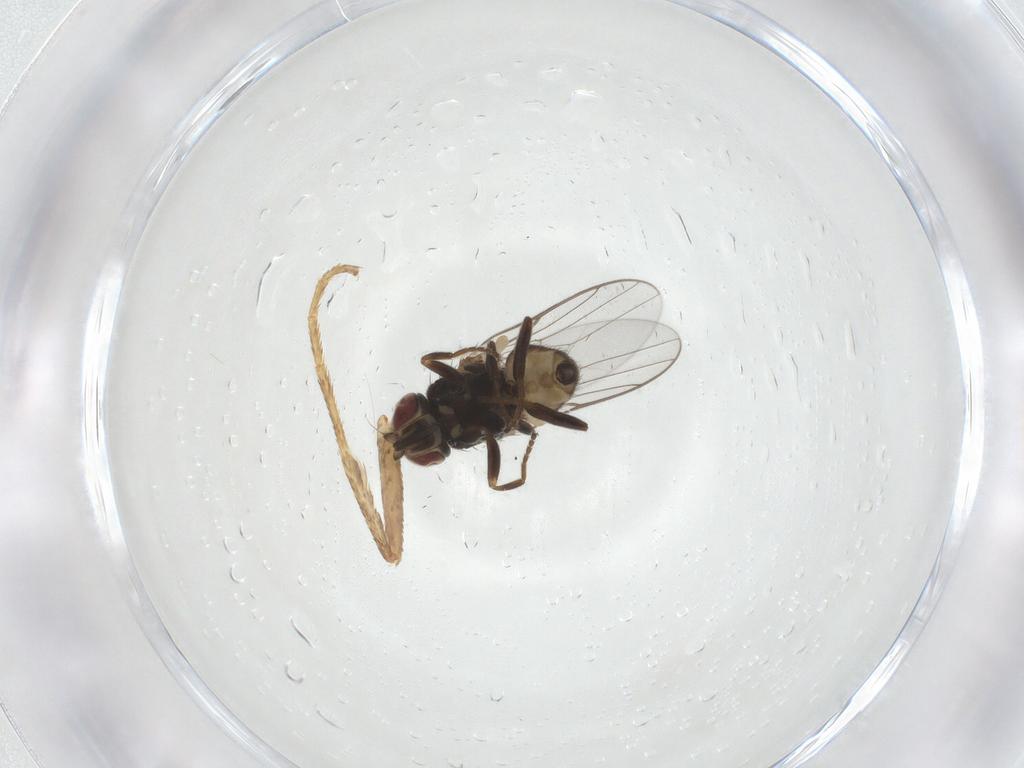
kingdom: Animalia
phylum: Arthropoda
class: Insecta
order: Diptera
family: Chloropidae
